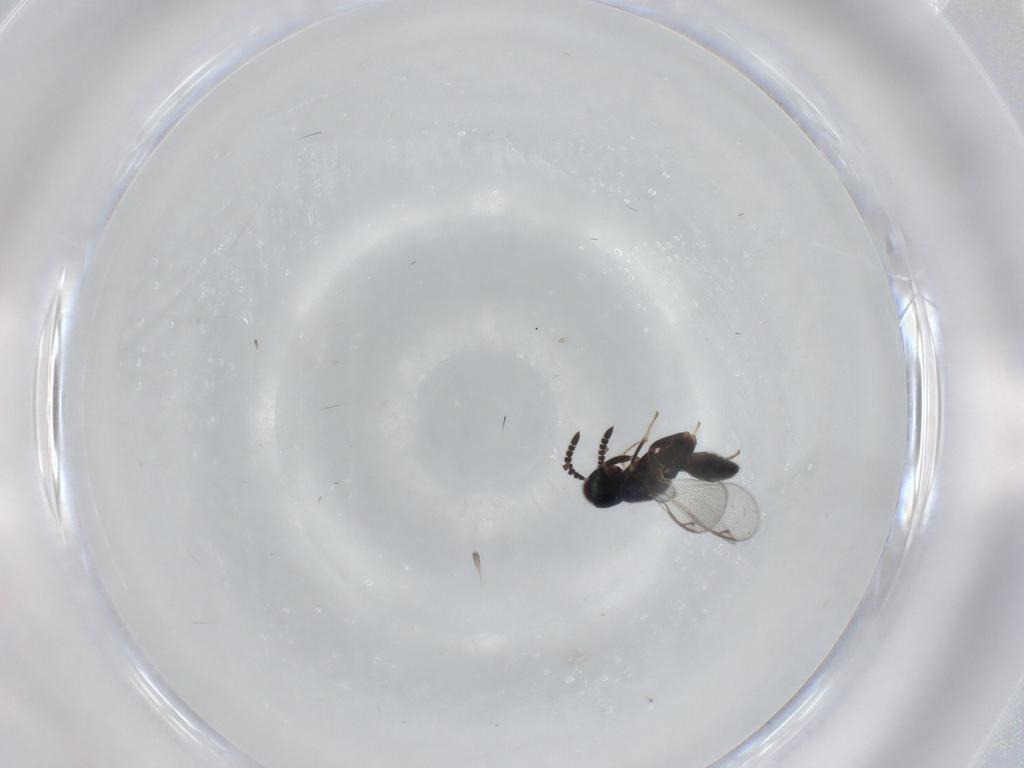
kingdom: Animalia
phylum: Arthropoda
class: Insecta
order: Hymenoptera
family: Cleonyminae
